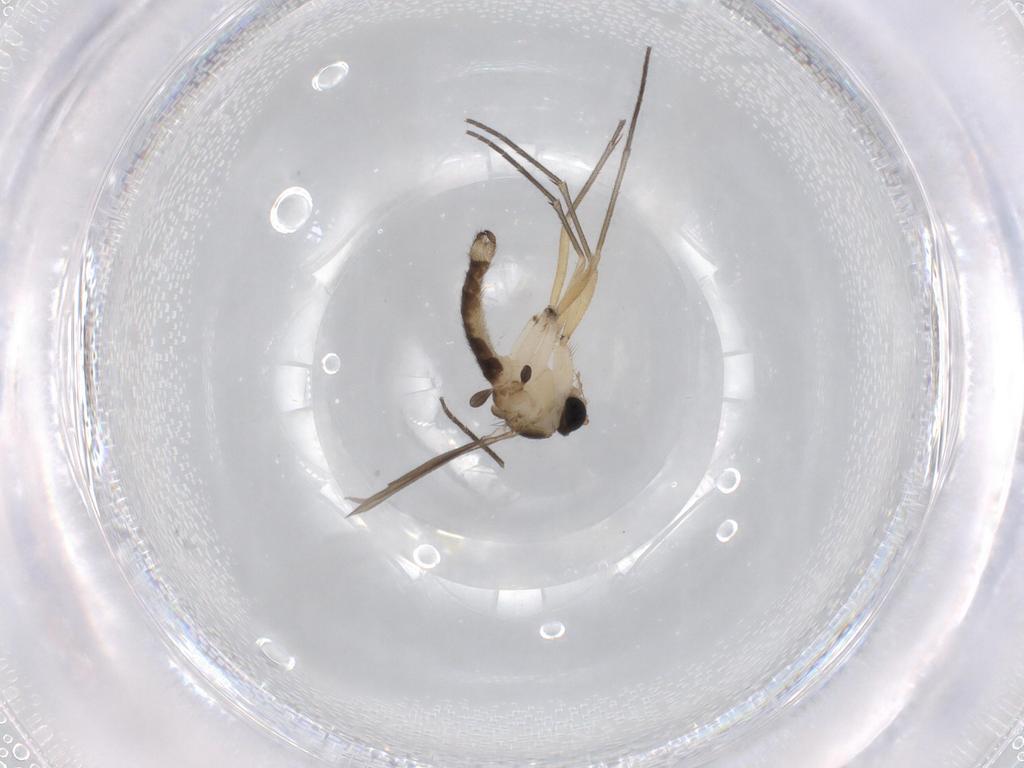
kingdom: Animalia
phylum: Arthropoda
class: Insecta
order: Diptera
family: Sciaridae
